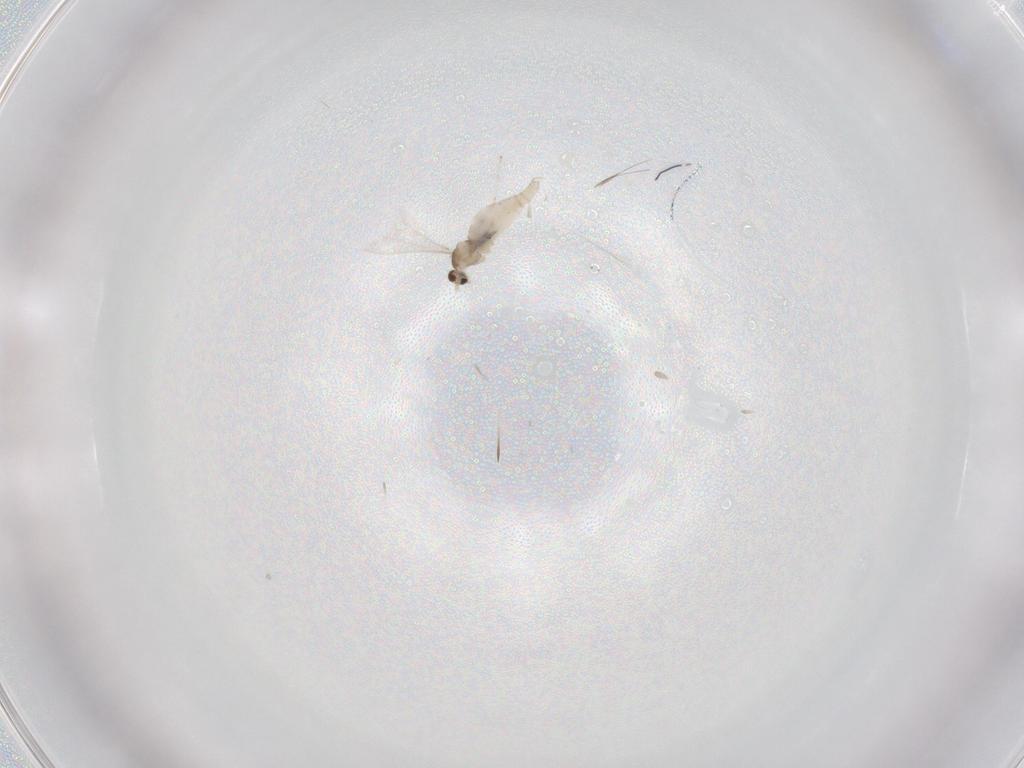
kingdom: Animalia
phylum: Arthropoda
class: Insecta
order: Diptera
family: Cecidomyiidae
